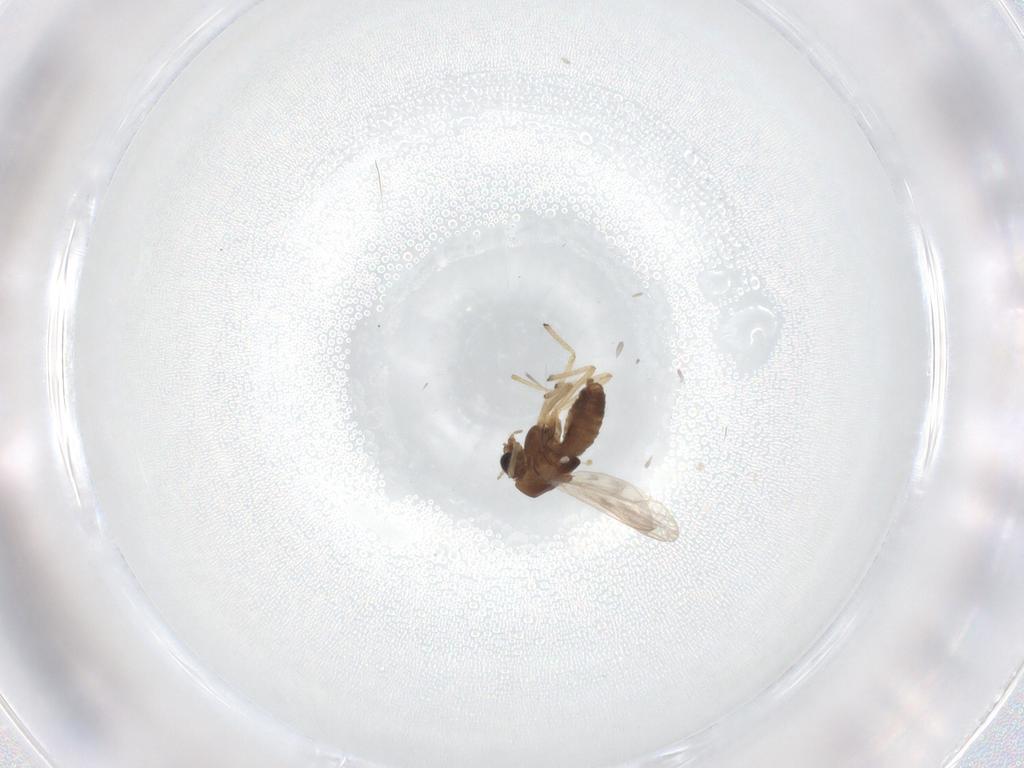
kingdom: Animalia
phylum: Arthropoda
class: Insecta
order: Diptera
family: Chironomidae
